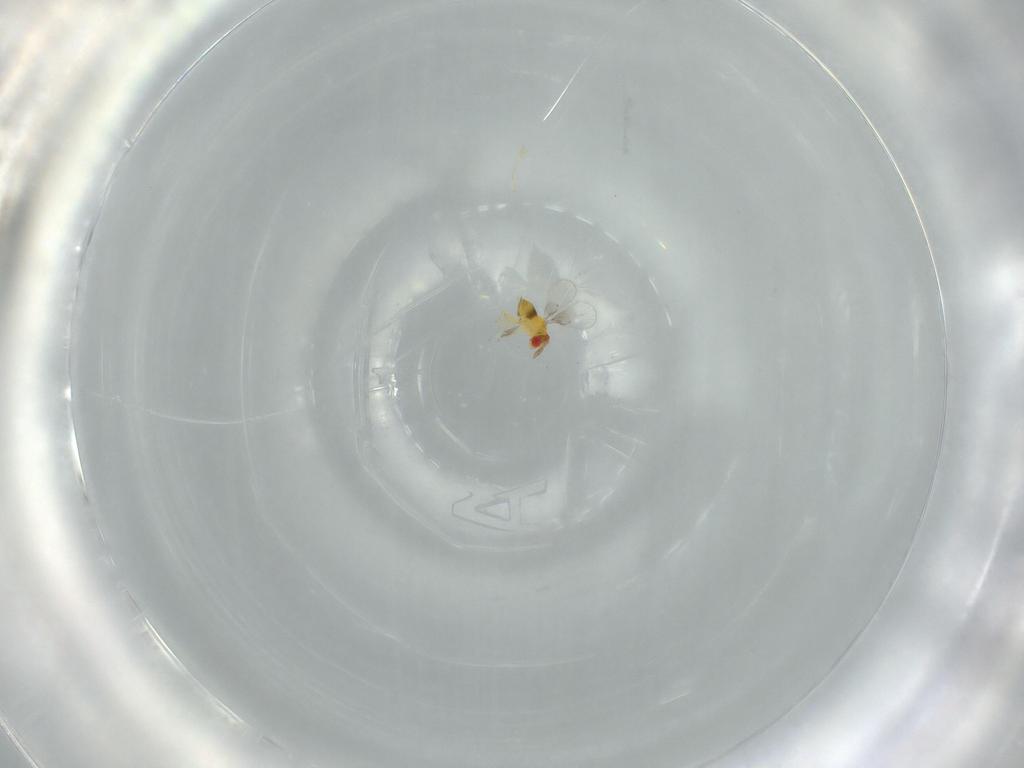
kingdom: Animalia
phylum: Arthropoda
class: Insecta
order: Hymenoptera
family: Trichogrammatidae
